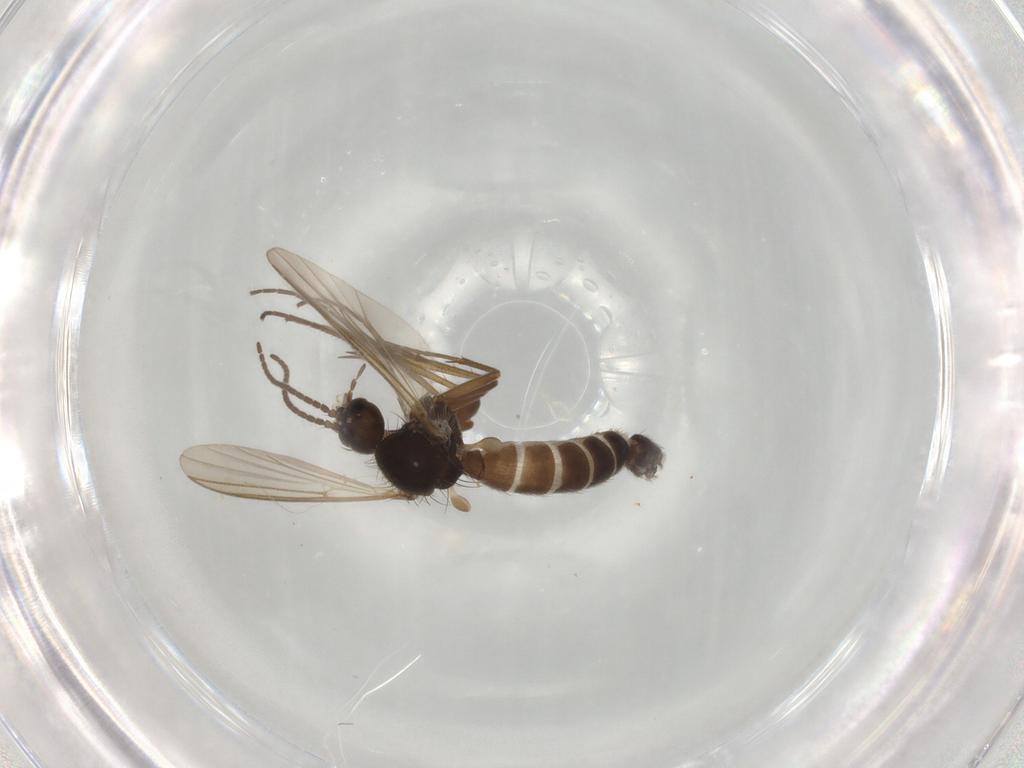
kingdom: Animalia
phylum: Arthropoda
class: Insecta
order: Diptera
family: Mycetophilidae
